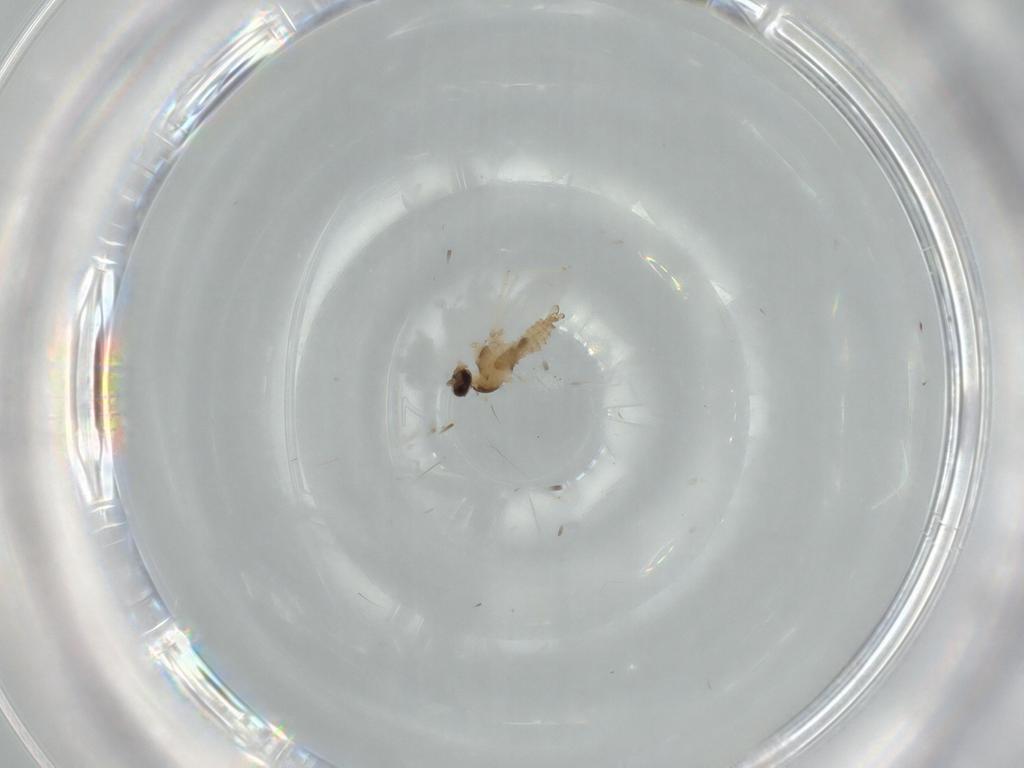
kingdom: Animalia
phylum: Arthropoda
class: Insecta
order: Diptera
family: Cecidomyiidae
